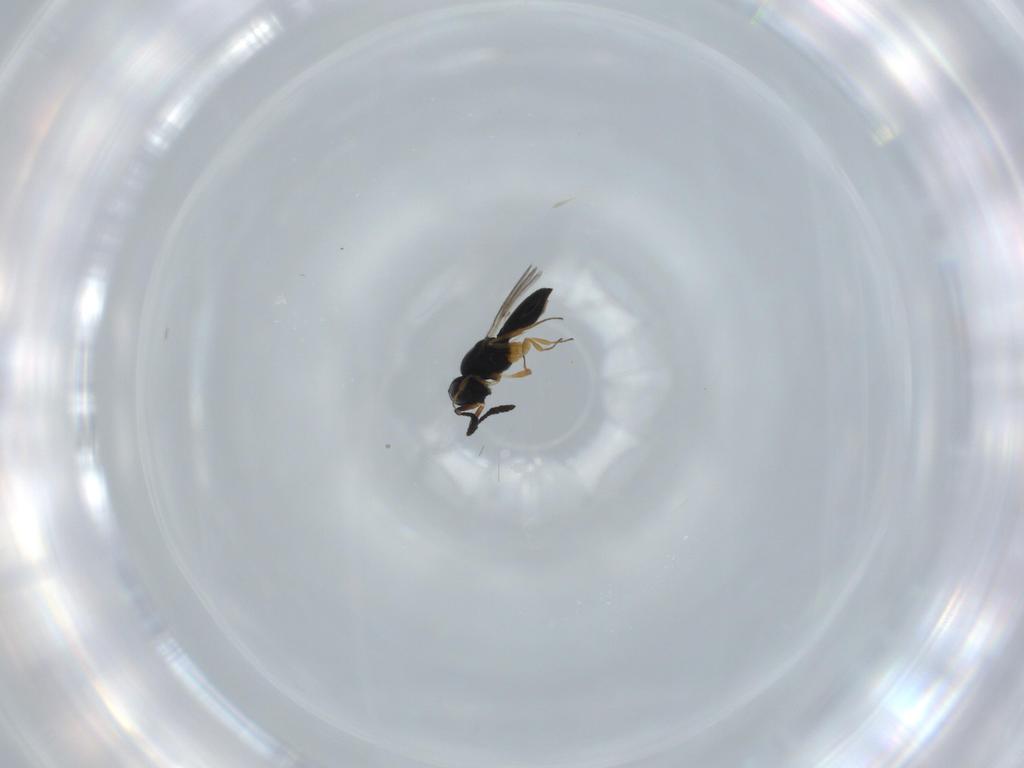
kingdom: Animalia
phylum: Arthropoda
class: Insecta
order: Hymenoptera
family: Scelionidae
